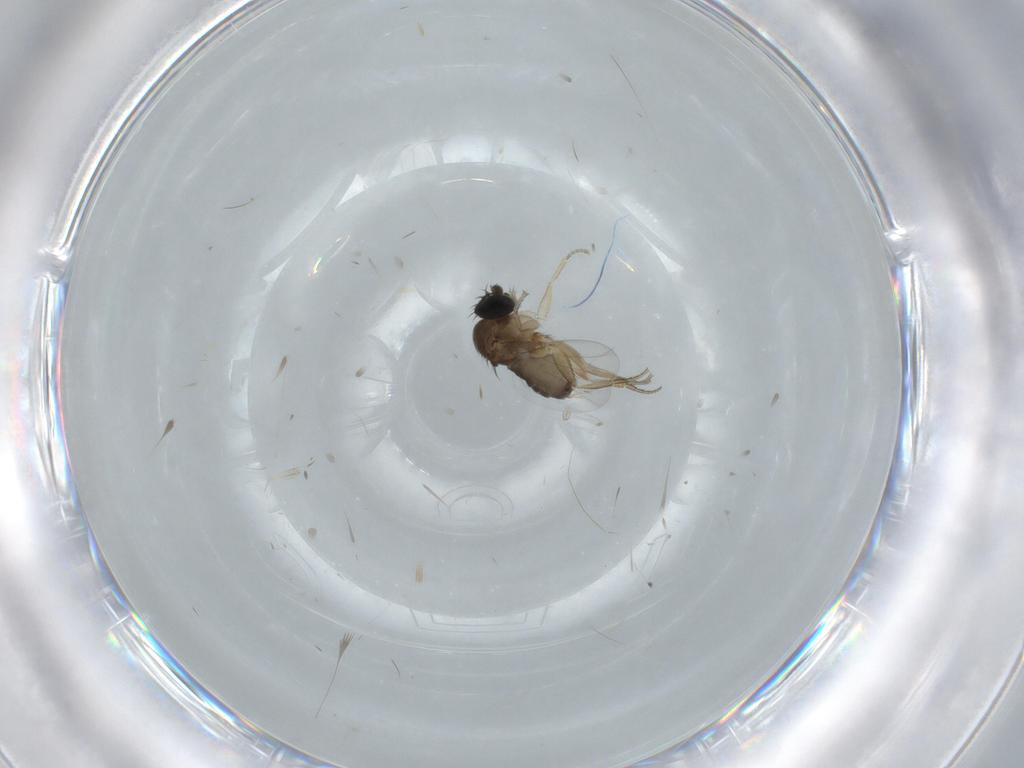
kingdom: Animalia
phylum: Arthropoda
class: Insecta
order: Diptera
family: Cecidomyiidae
